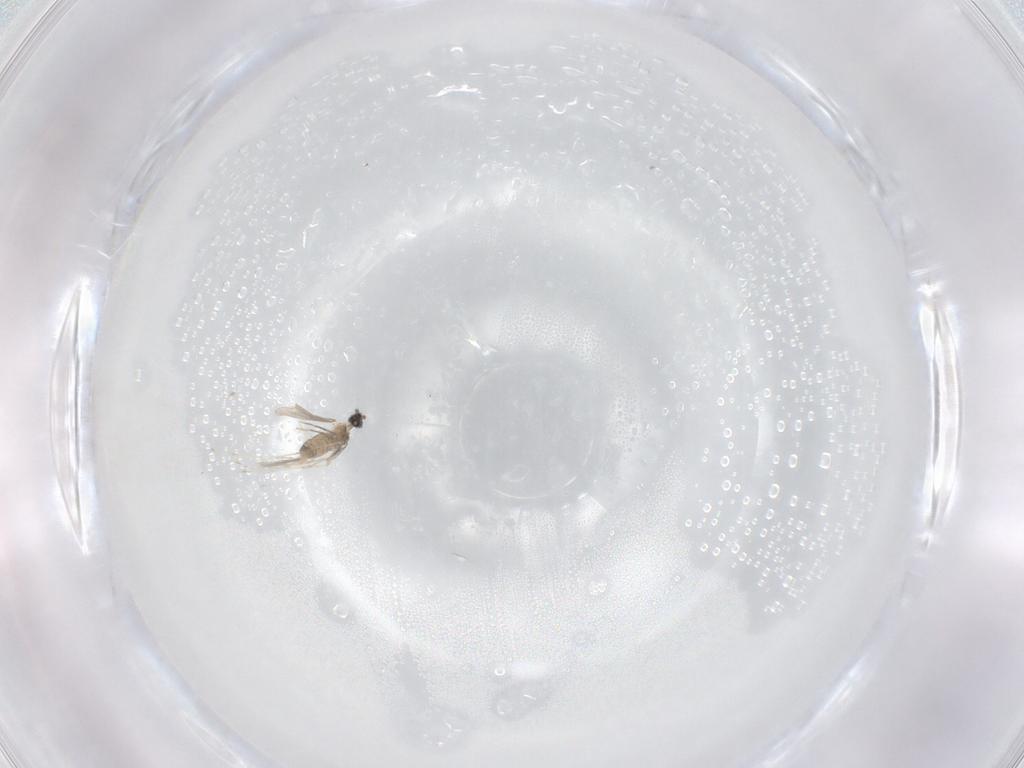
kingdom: Animalia
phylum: Arthropoda
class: Insecta
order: Diptera
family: Cecidomyiidae
